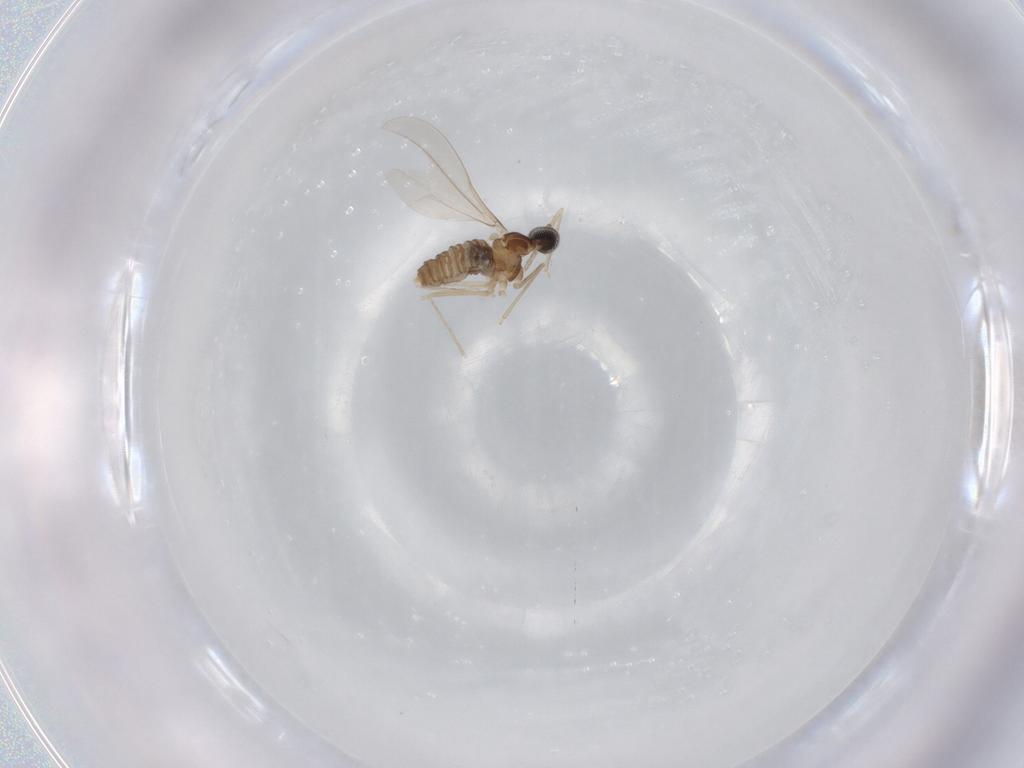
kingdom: Animalia
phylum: Arthropoda
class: Insecta
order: Diptera
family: Cecidomyiidae
